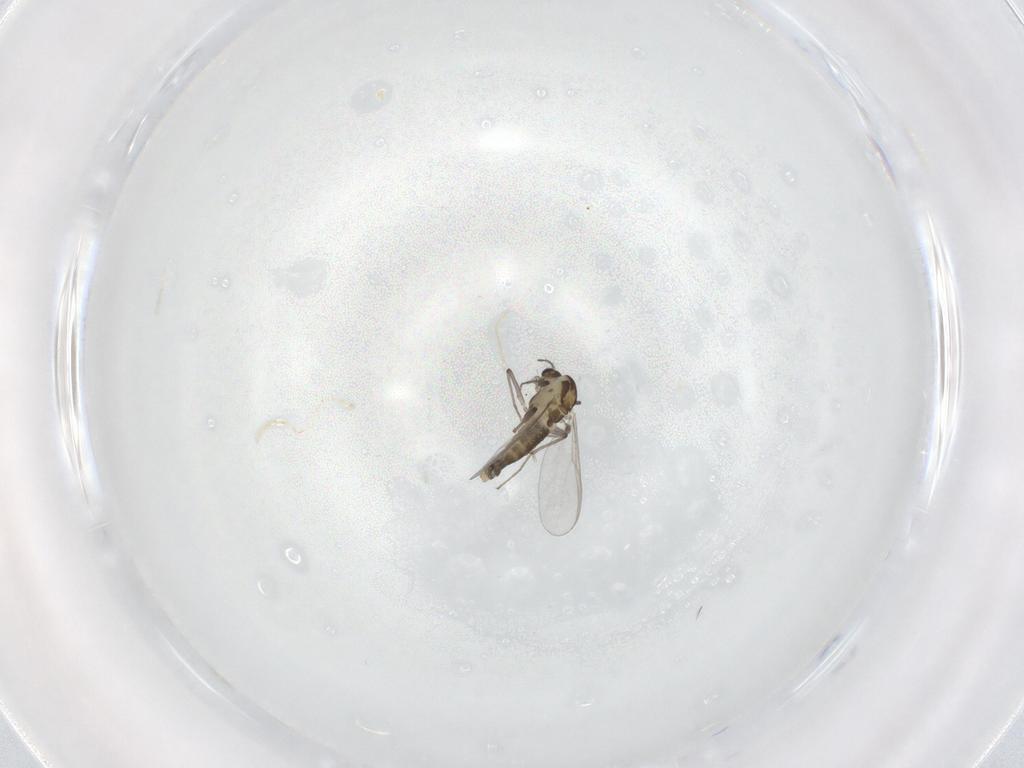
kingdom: Animalia
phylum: Arthropoda
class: Insecta
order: Diptera
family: Chironomidae
